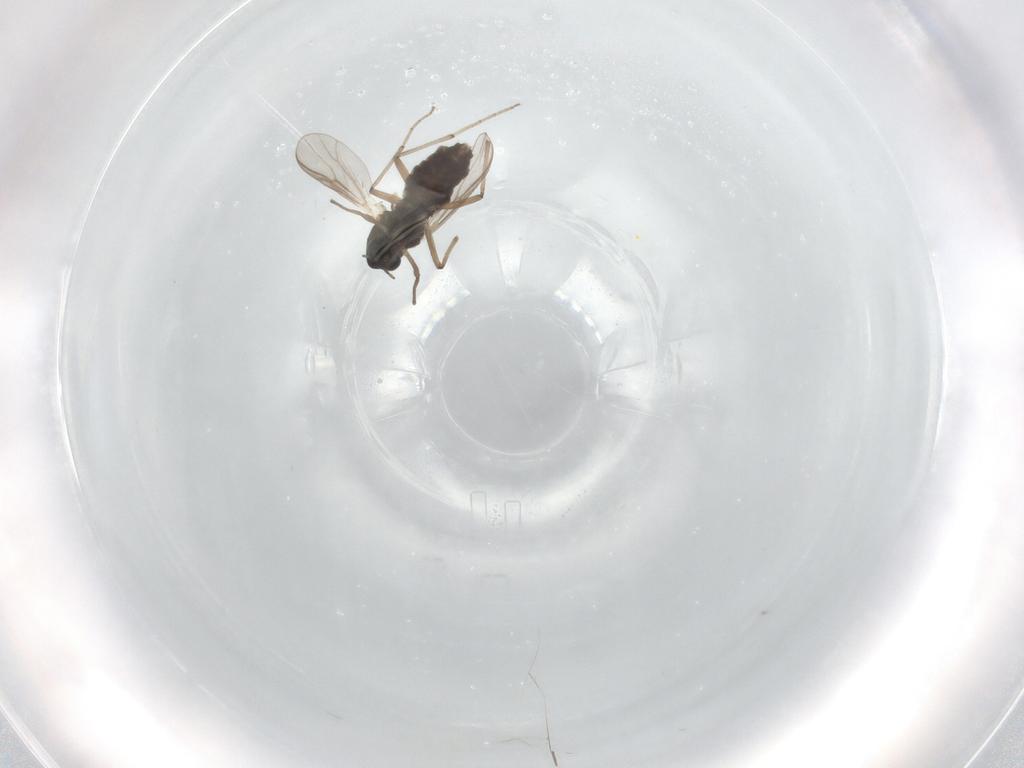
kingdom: Animalia
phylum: Arthropoda
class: Insecta
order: Diptera
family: Chironomidae
